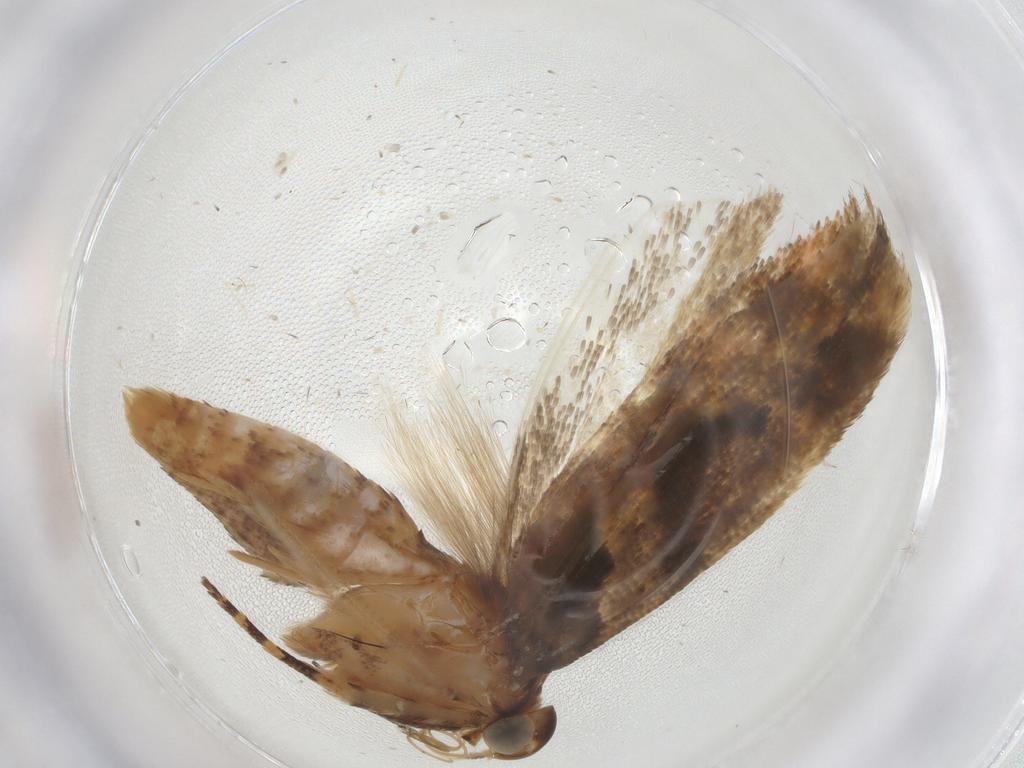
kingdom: Animalia
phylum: Arthropoda
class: Insecta
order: Lepidoptera
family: Gelechiidae
